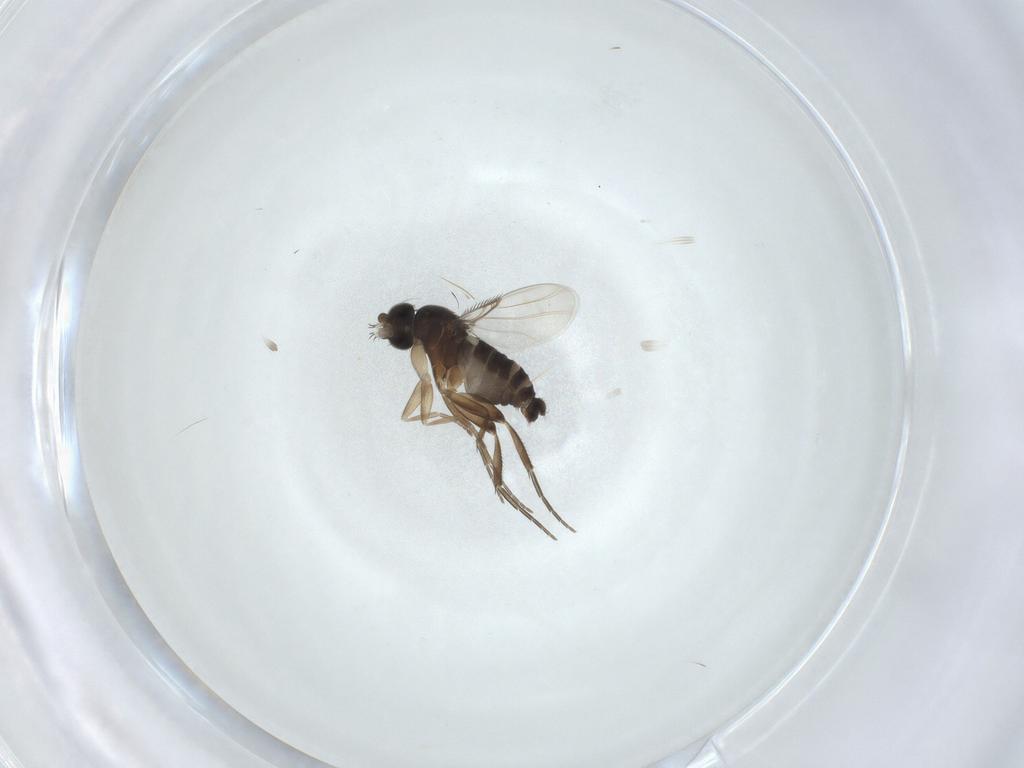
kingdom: Animalia
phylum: Arthropoda
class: Insecta
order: Diptera
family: Phoridae
